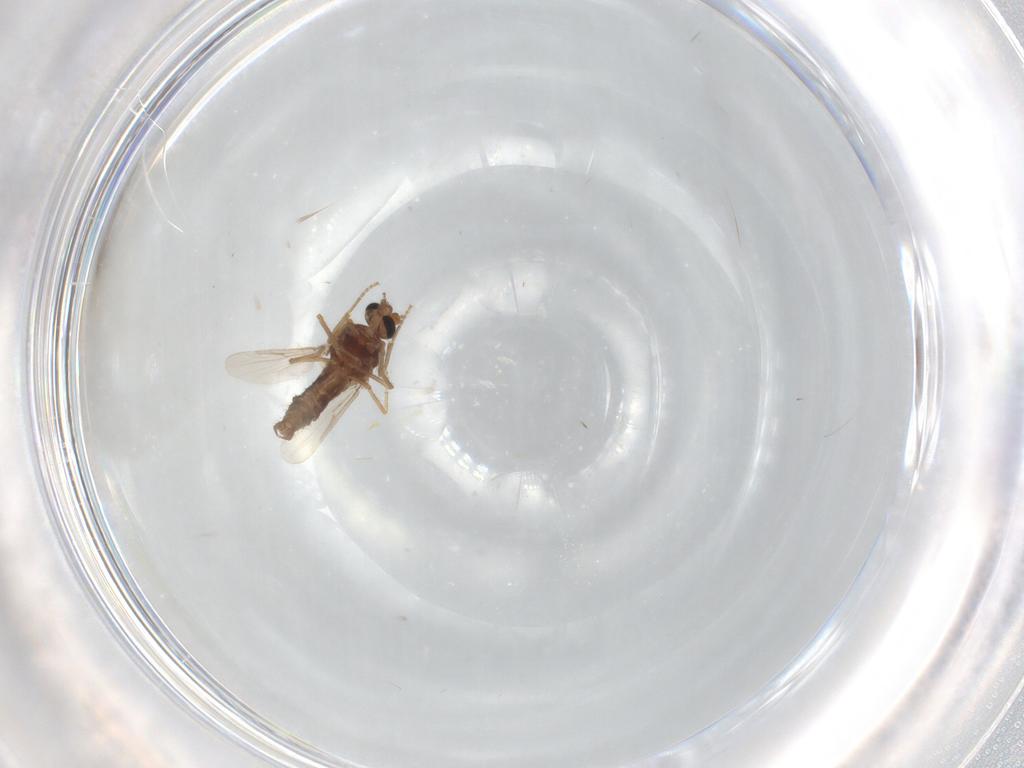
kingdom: Animalia
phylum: Arthropoda
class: Insecta
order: Diptera
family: Ceratopogonidae
